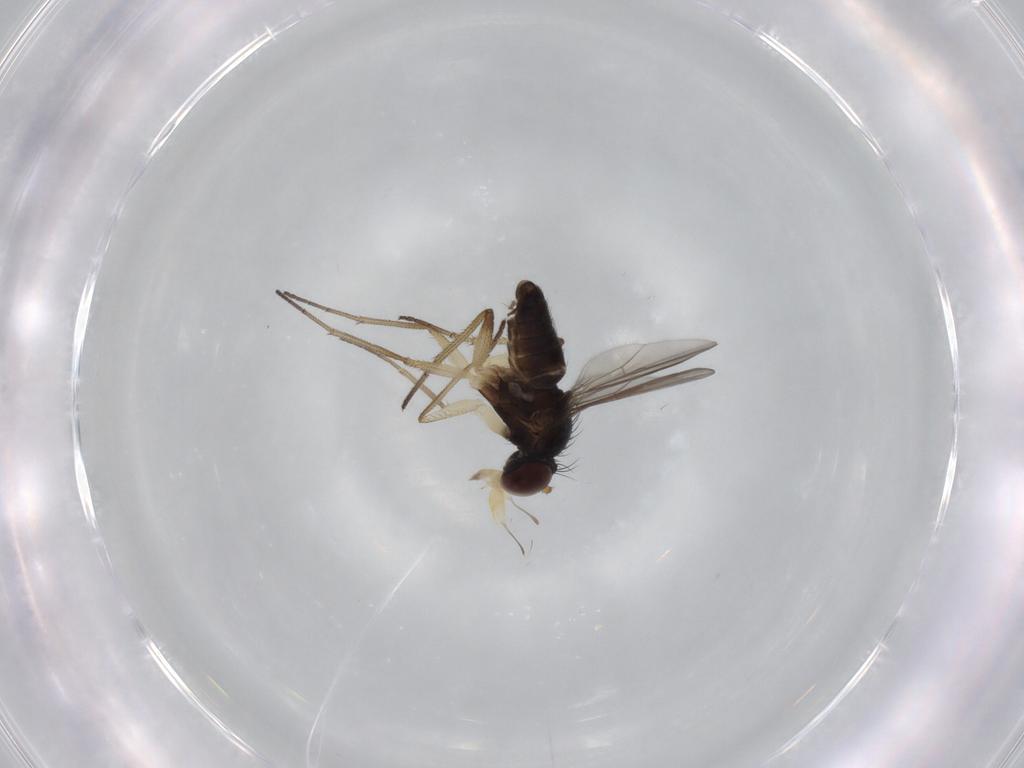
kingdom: Animalia
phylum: Arthropoda
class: Insecta
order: Diptera
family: Dolichopodidae
